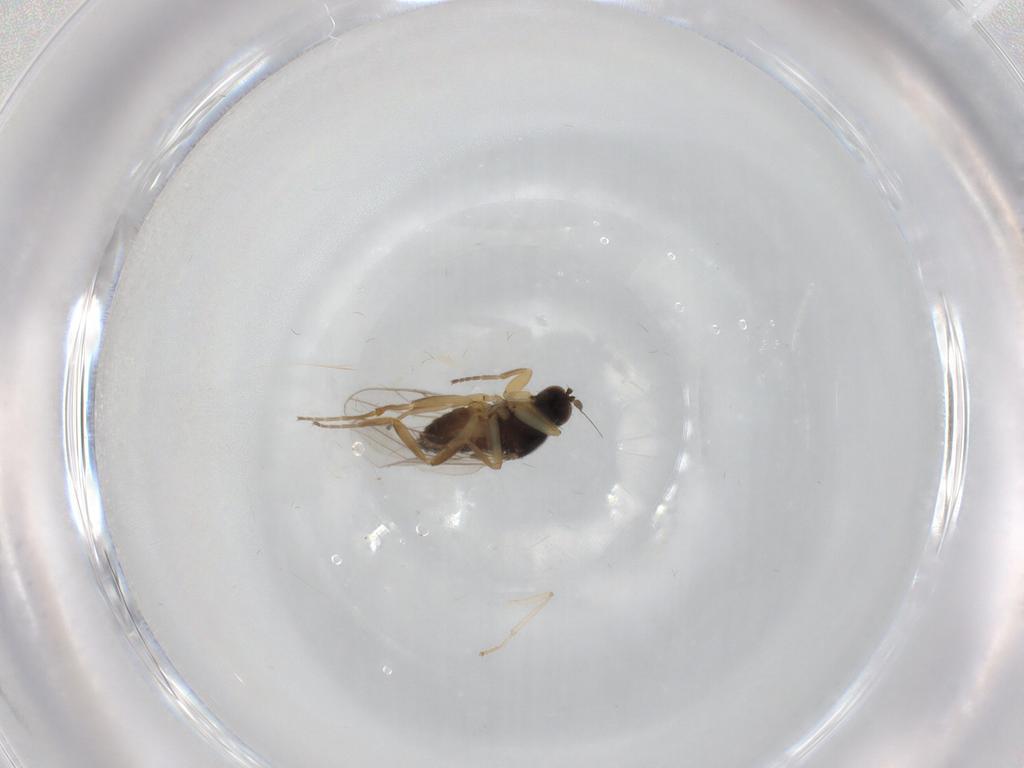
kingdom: Animalia
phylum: Arthropoda
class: Insecta
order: Diptera
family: Hybotidae
